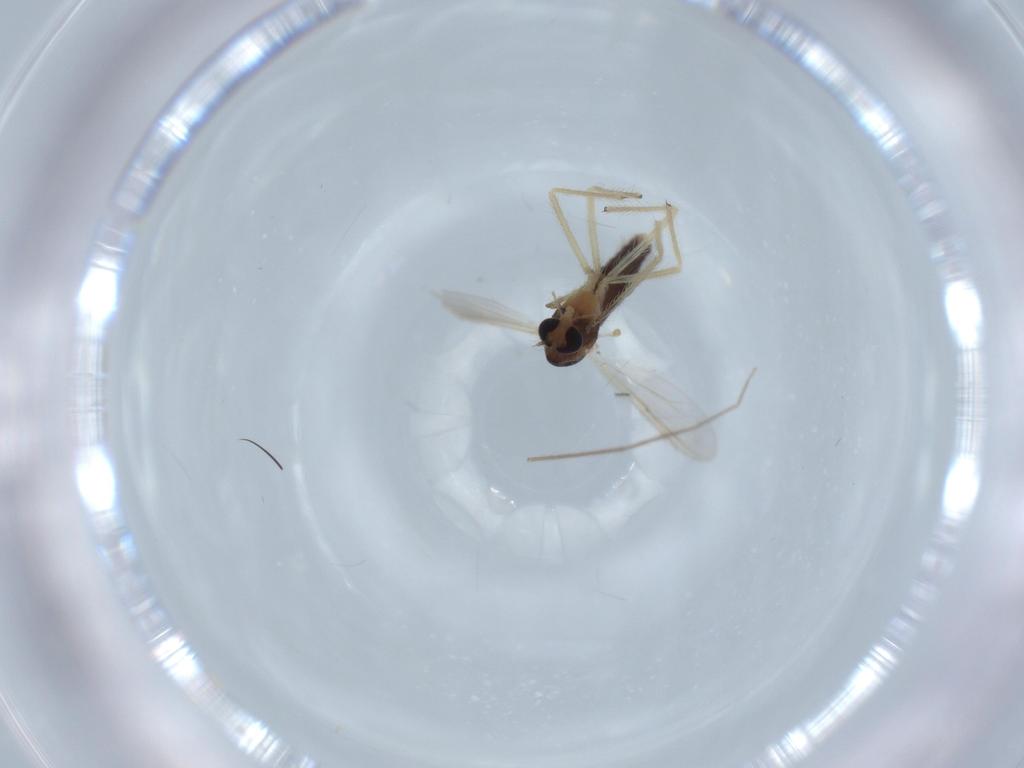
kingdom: Animalia
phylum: Arthropoda
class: Insecta
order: Diptera
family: Chironomidae
